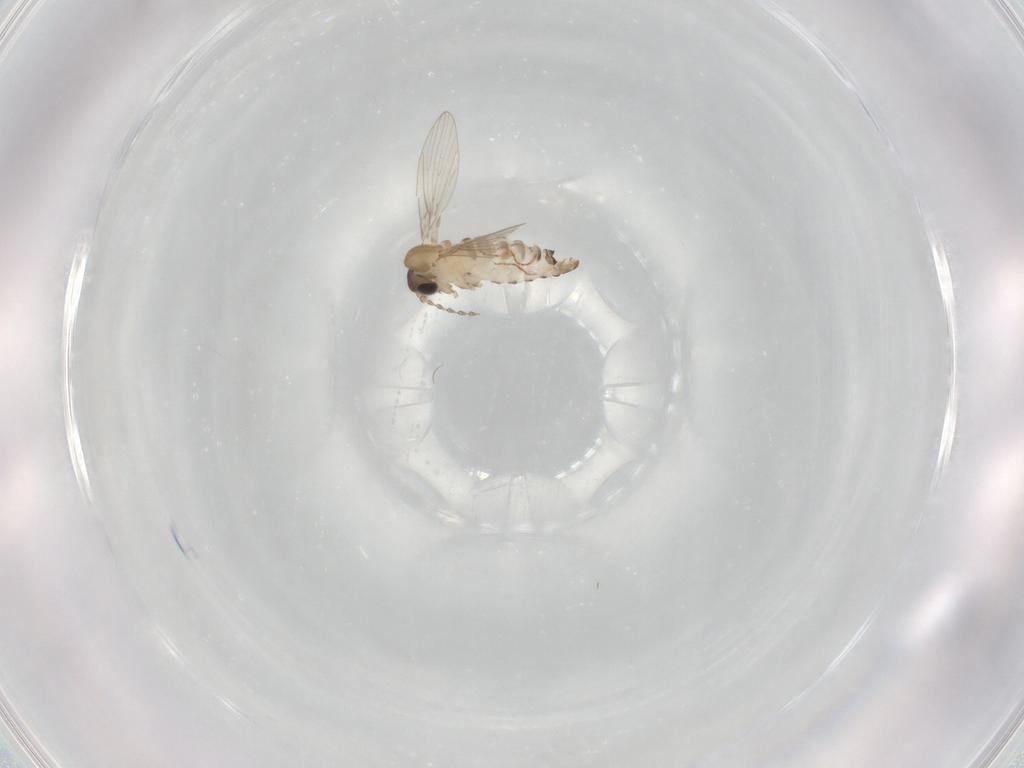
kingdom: Animalia
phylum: Arthropoda
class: Insecta
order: Diptera
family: Psychodidae
